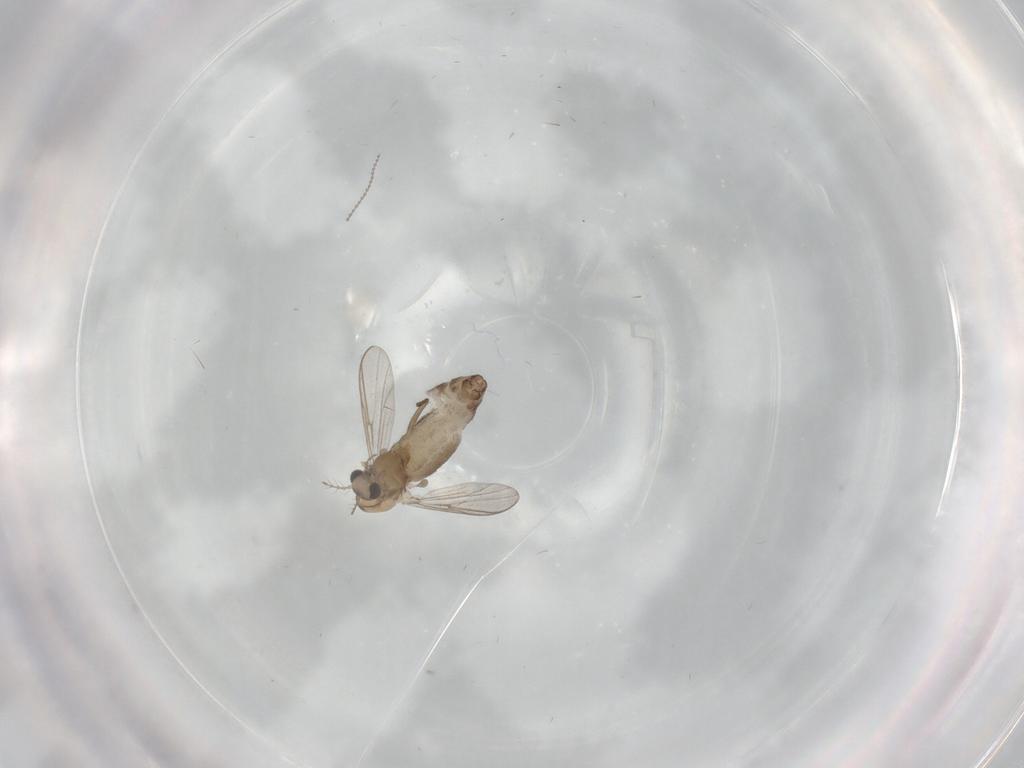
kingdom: Animalia
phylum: Arthropoda
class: Insecta
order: Diptera
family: Chironomidae
